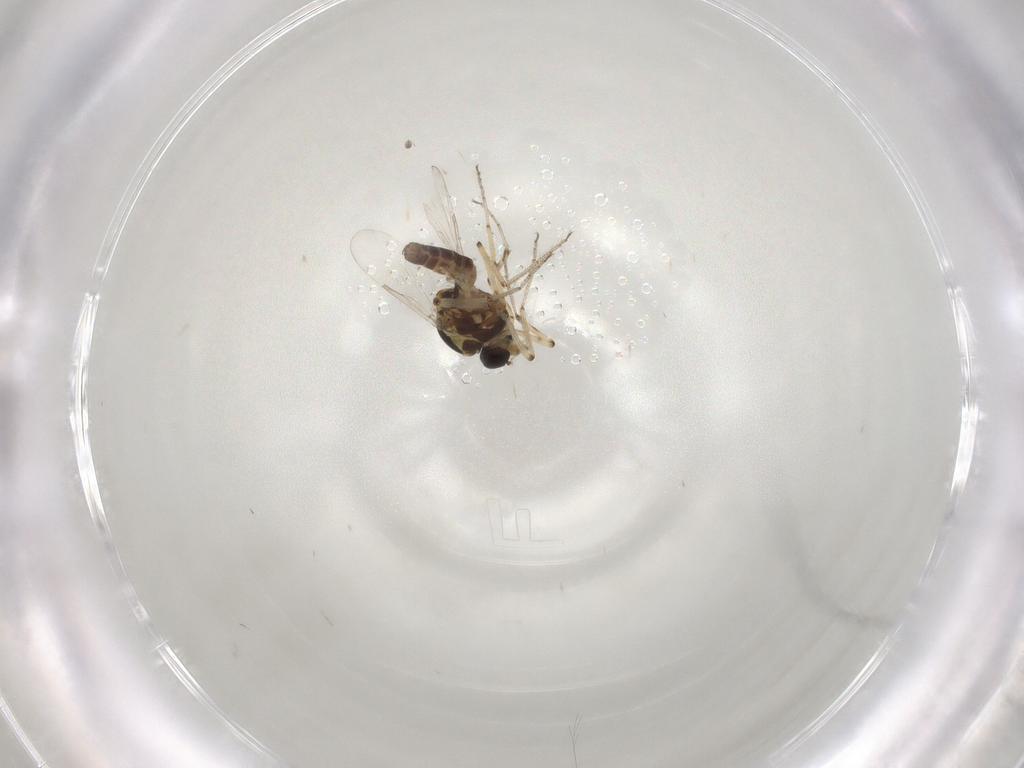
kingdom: Animalia
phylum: Arthropoda
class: Insecta
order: Diptera
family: Ceratopogonidae
